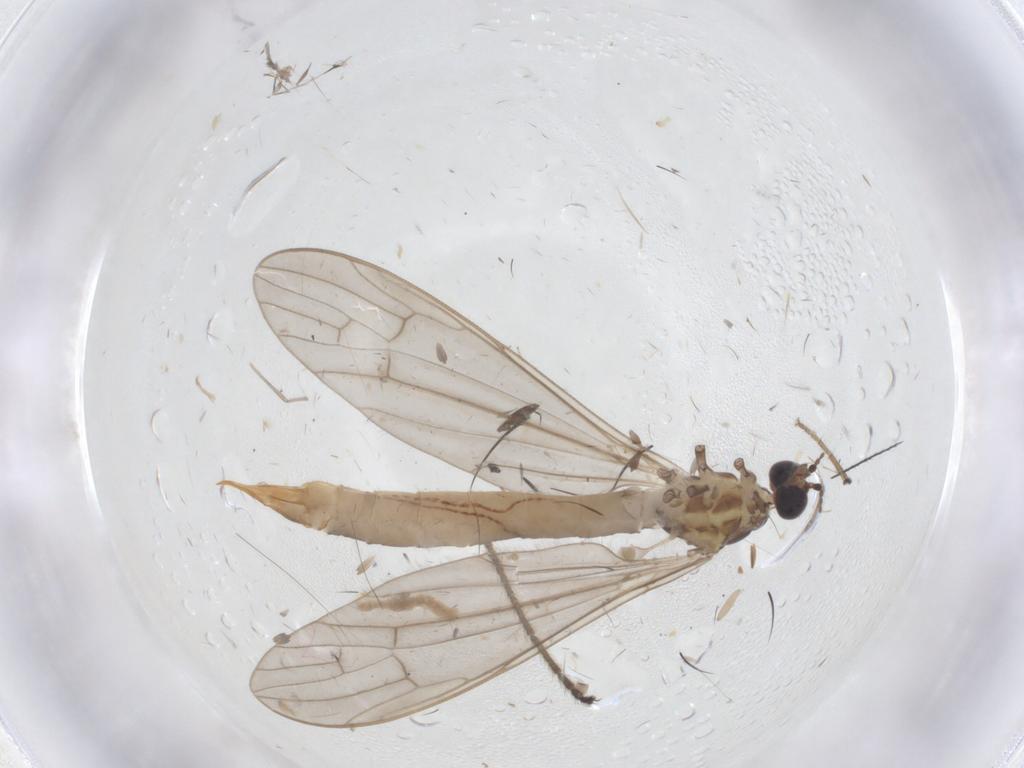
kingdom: Animalia
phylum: Arthropoda
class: Insecta
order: Diptera
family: Limoniidae
